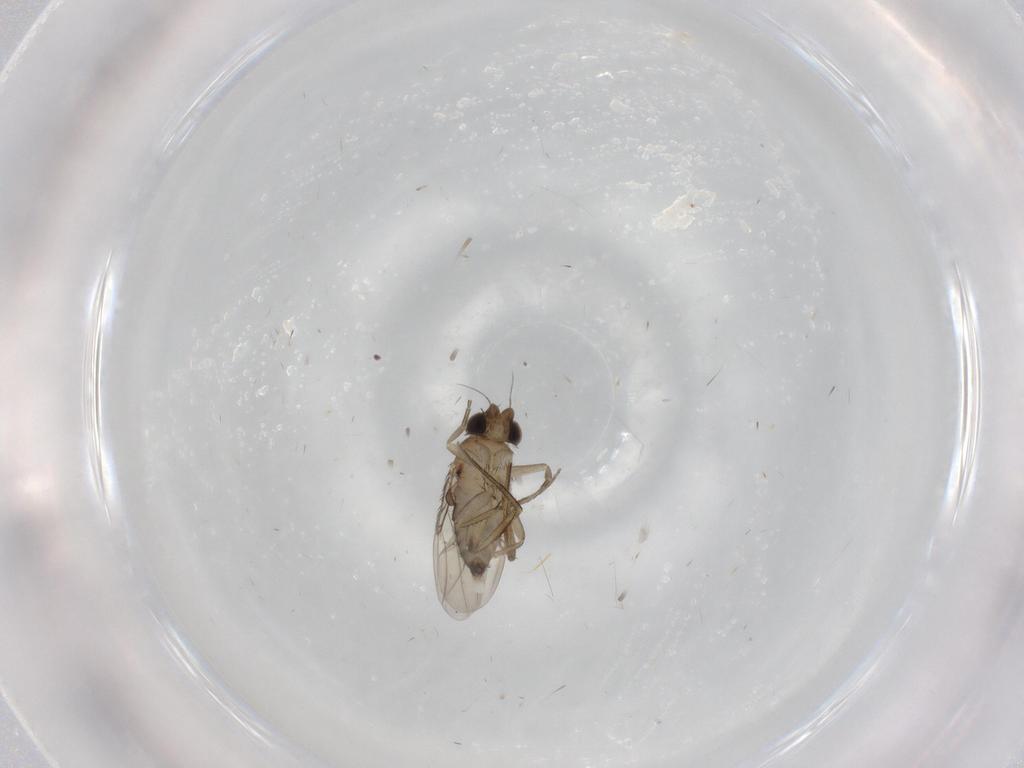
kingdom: Animalia
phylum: Arthropoda
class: Insecta
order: Diptera
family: Phoridae
